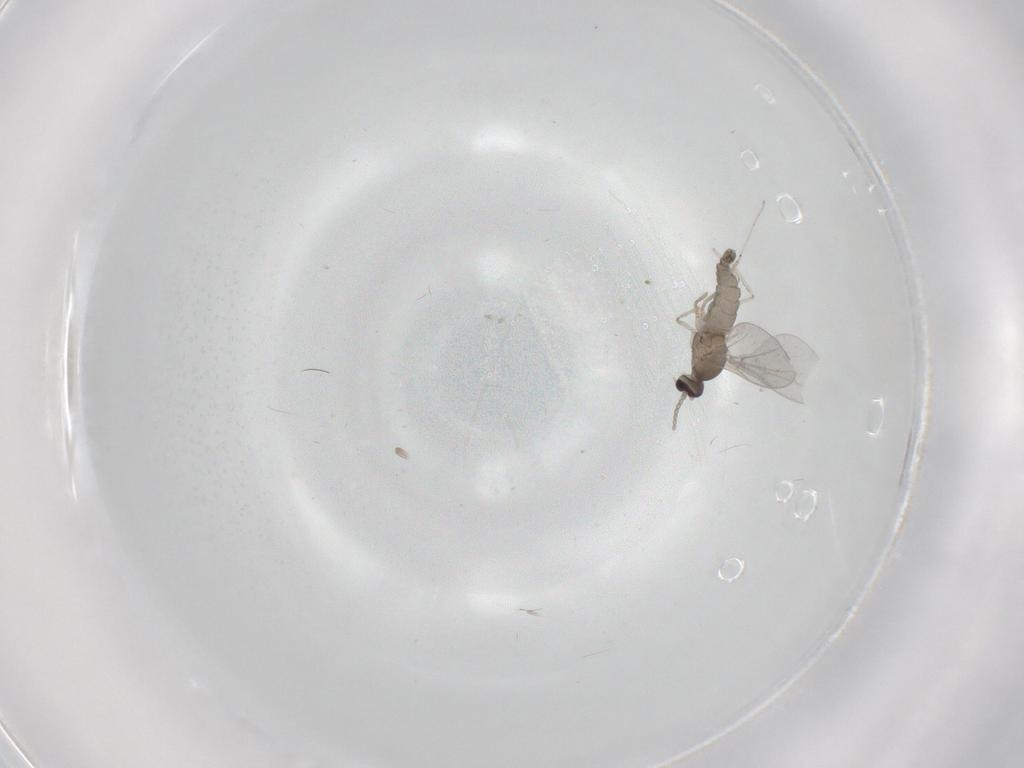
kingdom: Animalia
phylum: Arthropoda
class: Insecta
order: Diptera
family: Cecidomyiidae
